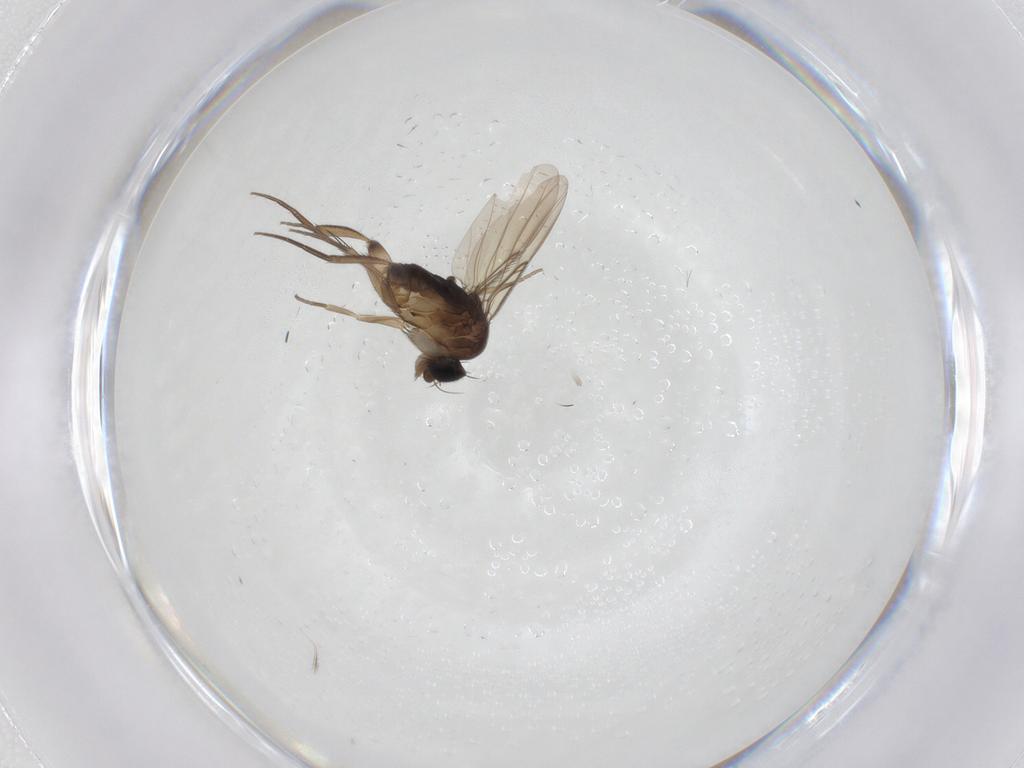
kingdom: Animalia
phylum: Arthropoda
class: Insecta
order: Diptera
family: Phoridae
